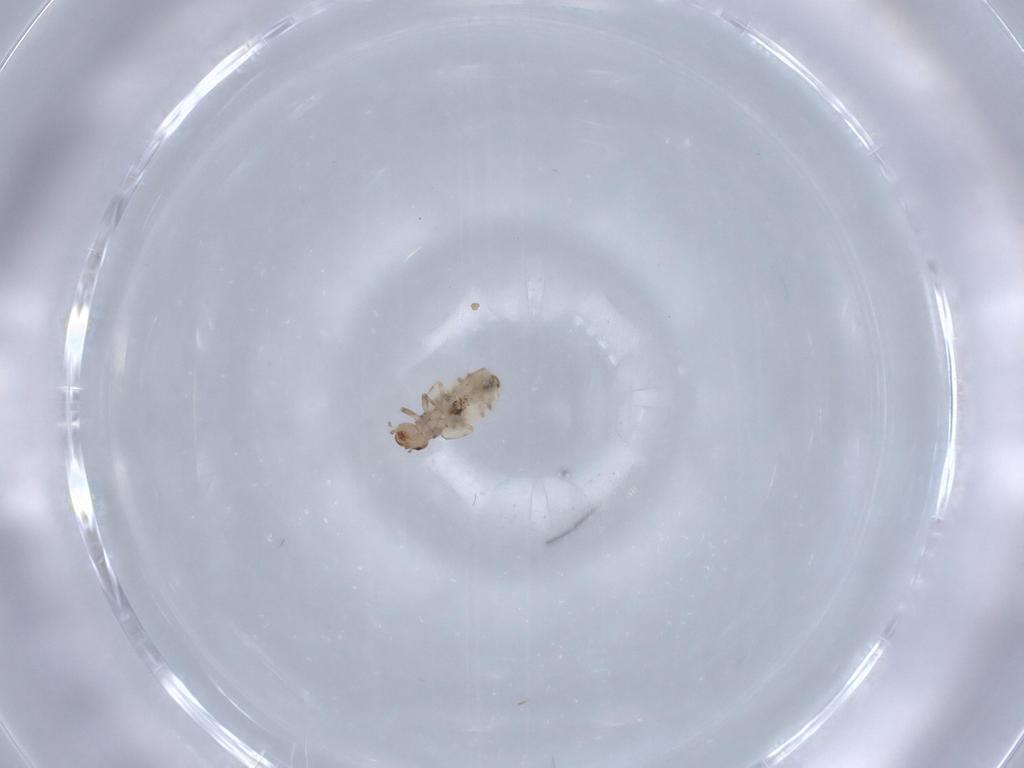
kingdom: Animalia
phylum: Arthropoda
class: Insecta
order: Psocodea
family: Liposcelididae
